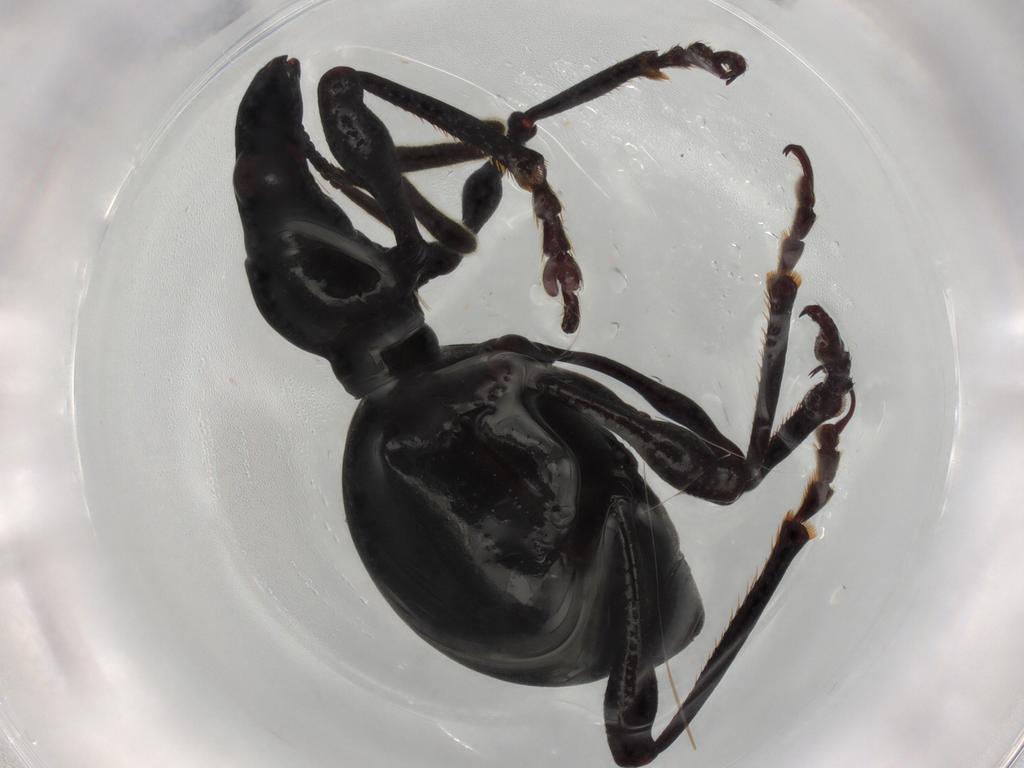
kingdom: Animalia
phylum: Arthropoda
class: Insecta
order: Coleoptera
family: Brentidae
